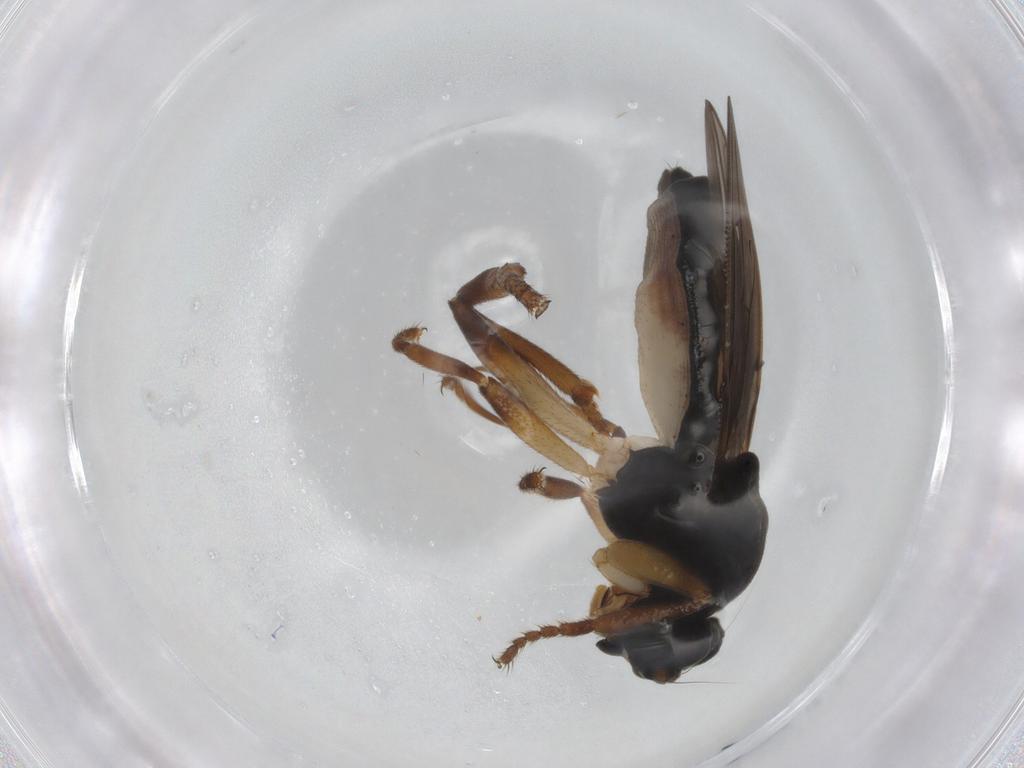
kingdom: Animalia
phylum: Arthropoda
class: Insecta
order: Diptera
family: Sphaeroceridae
